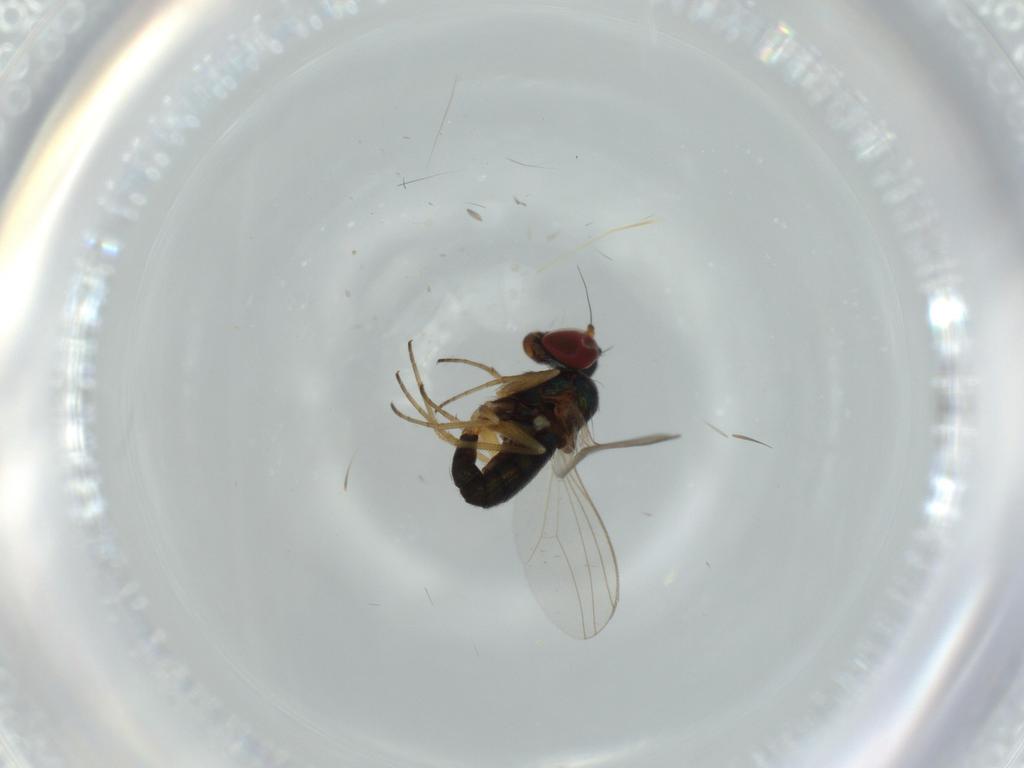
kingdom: Animalia
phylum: Arthropoda
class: Insecta
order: Diptera
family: Dolichopodidae
